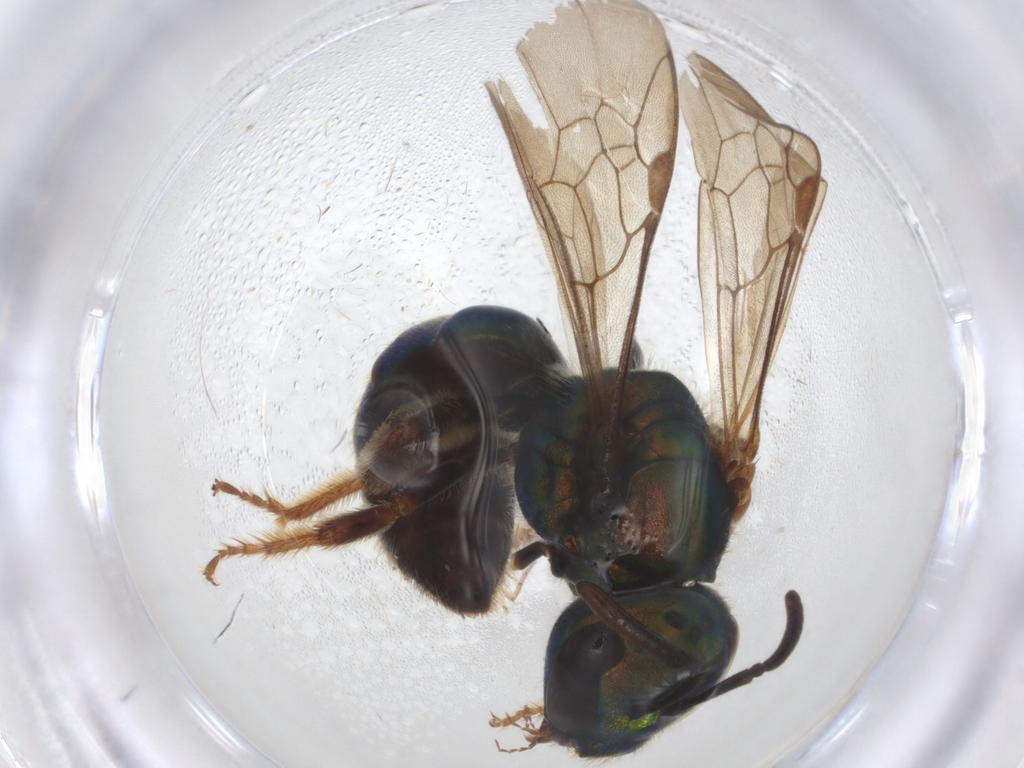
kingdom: Animalia
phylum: Arthropoda
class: Insecta
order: Hymenoptera
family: Halictidae
